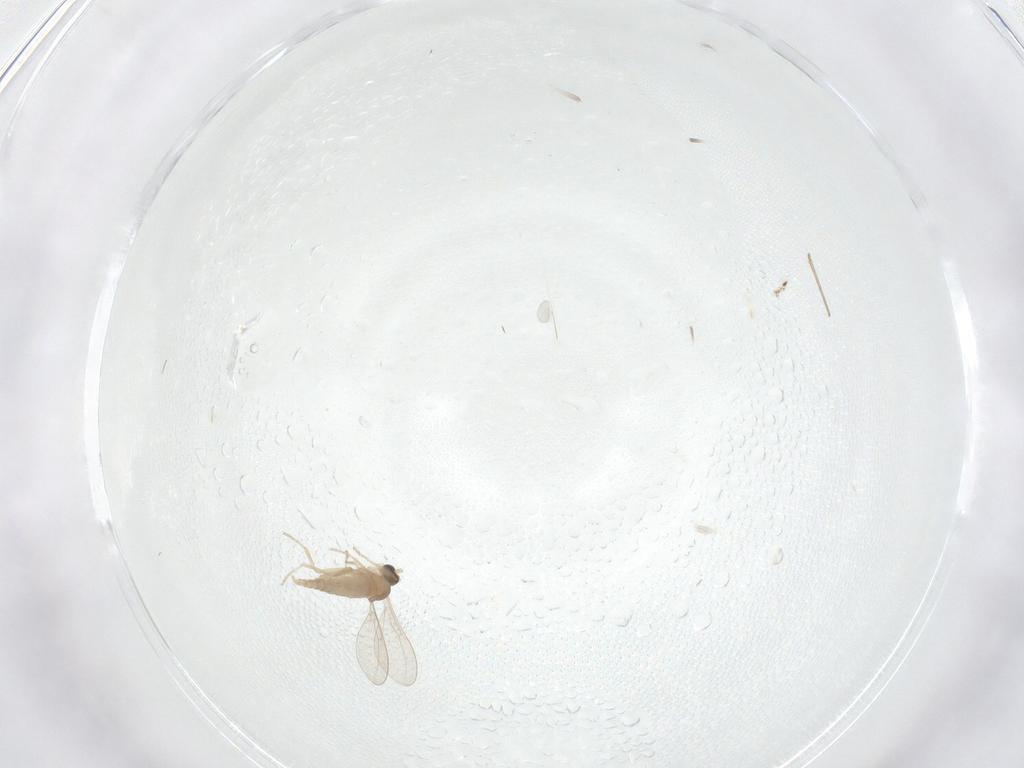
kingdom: Animalia
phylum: Arthropoda
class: Insecta
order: Diptera
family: Cecidomyiidae
